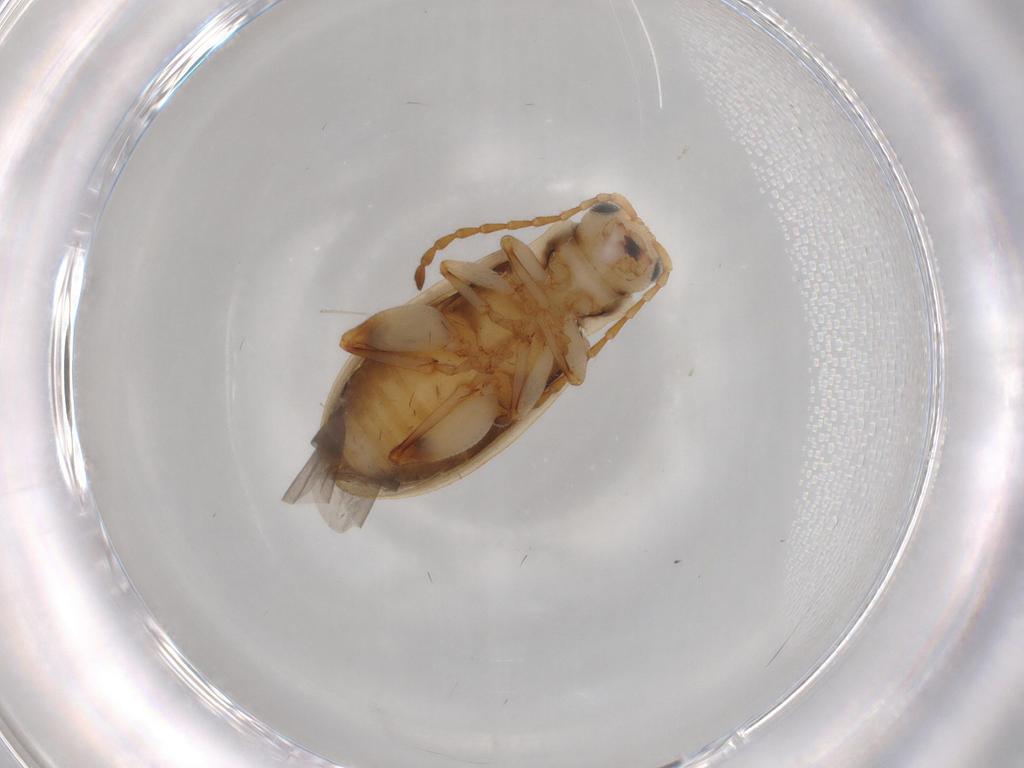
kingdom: Animalia
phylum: Arthropoda
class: Insecta
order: Coleoptera
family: Chrysomelidae
